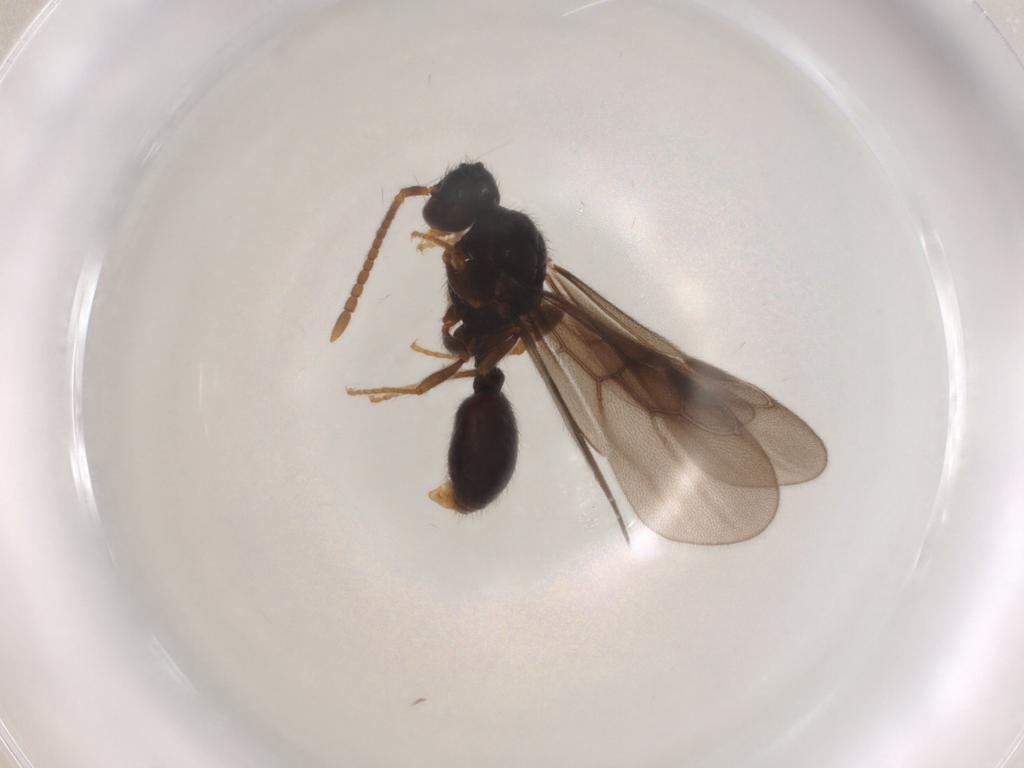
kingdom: Animalia
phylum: Arthropoda
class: Insecta
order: Hymenoptera
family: Formicidae
